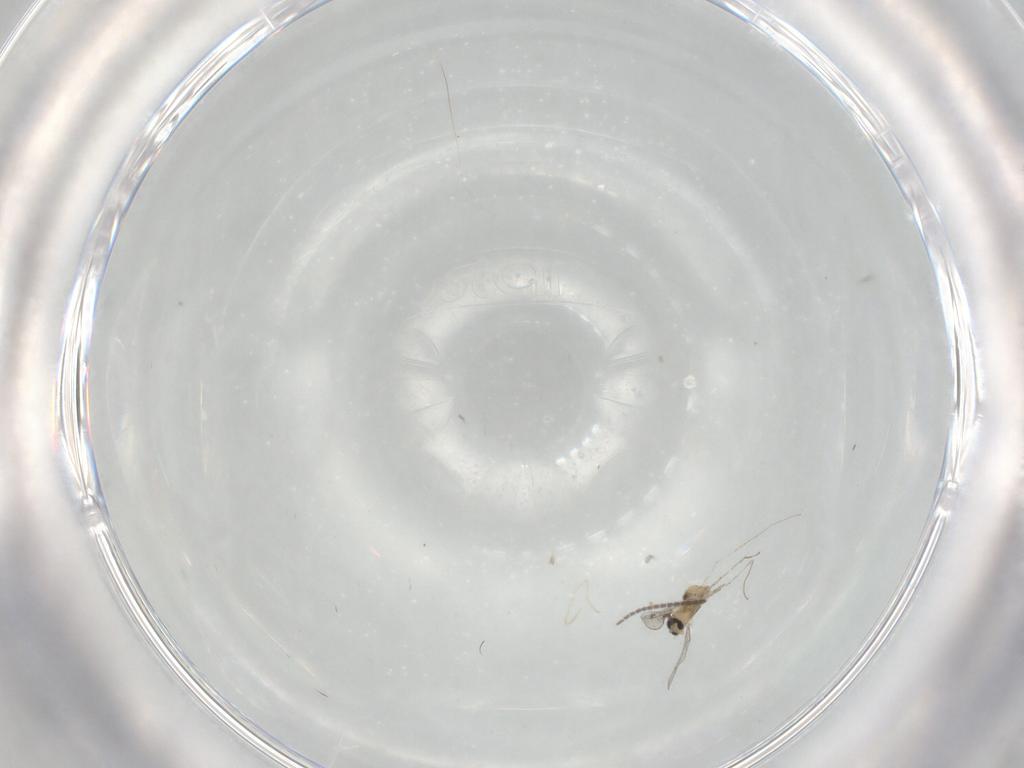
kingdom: Animalia
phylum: Arthropoda
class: Insecta
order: Diptera
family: Sciaridae
